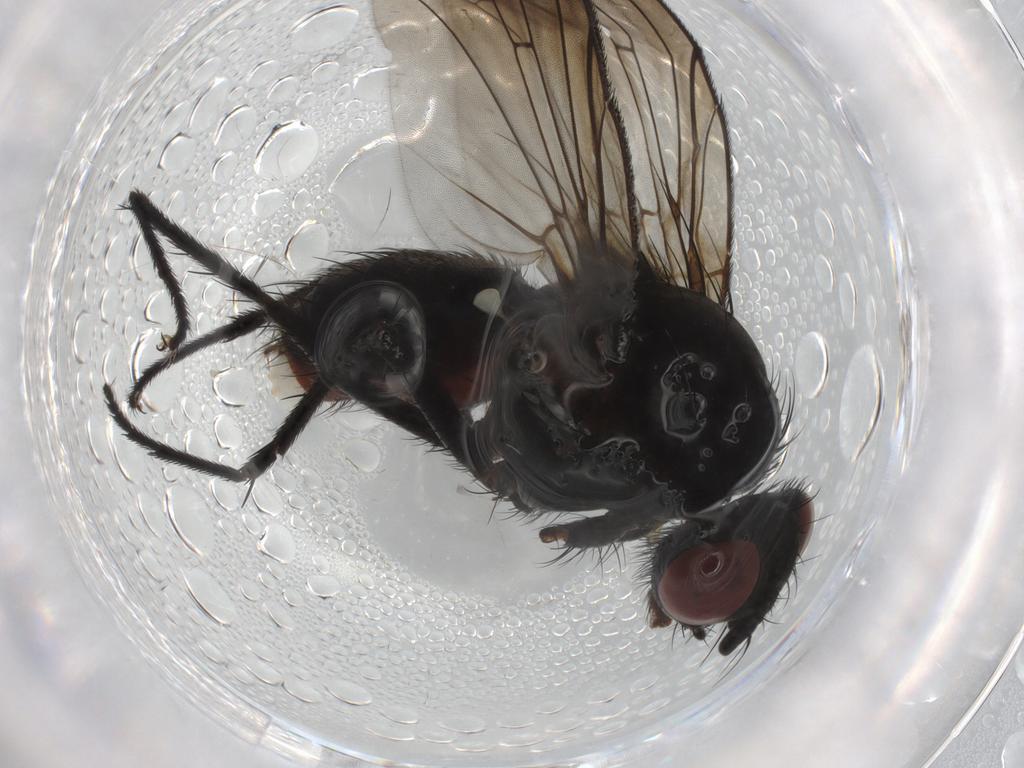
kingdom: Animalia
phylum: Arthropoda
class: Insecta
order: Diptera
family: Anthomyiidae
